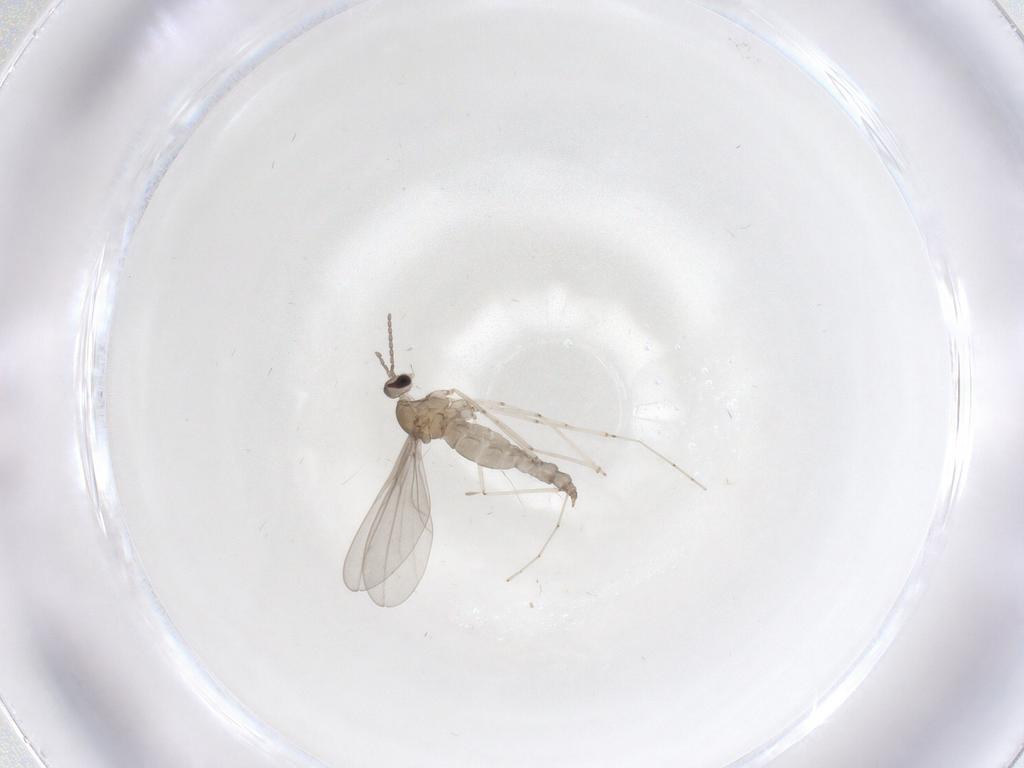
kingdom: Animalia
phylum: Arthropoda
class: Insecta
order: Diptera
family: Cecidomyiidae
